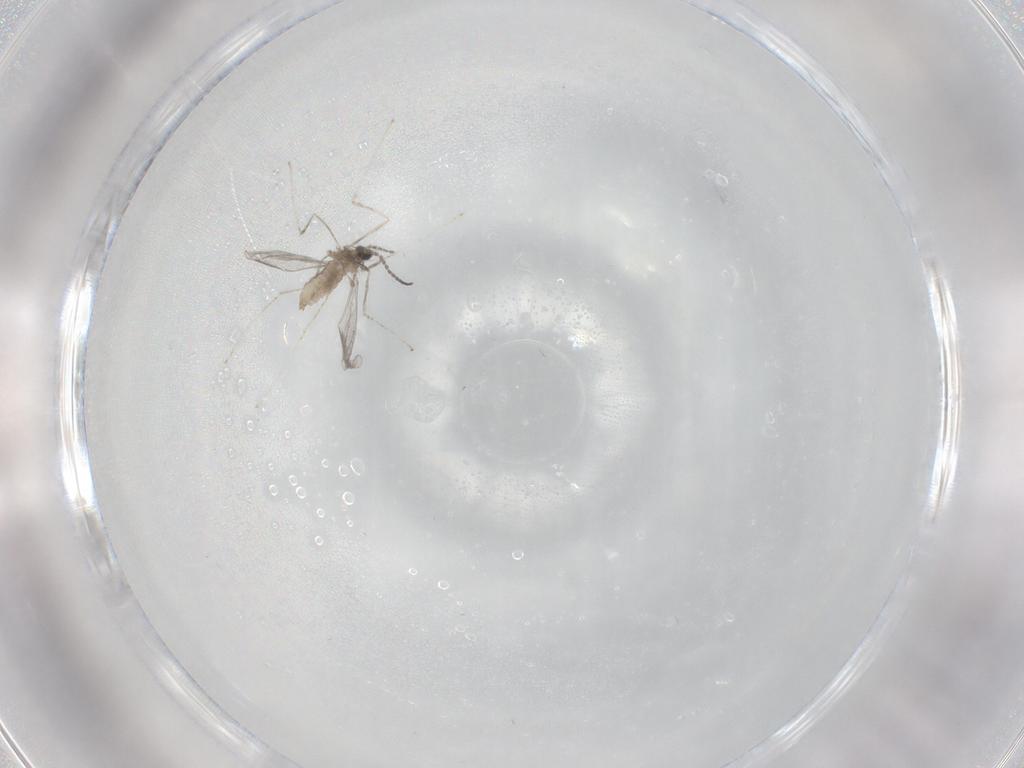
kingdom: Animalia
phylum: Arthropoda
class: Insecta
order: Diptera
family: Cecidomyiidae
